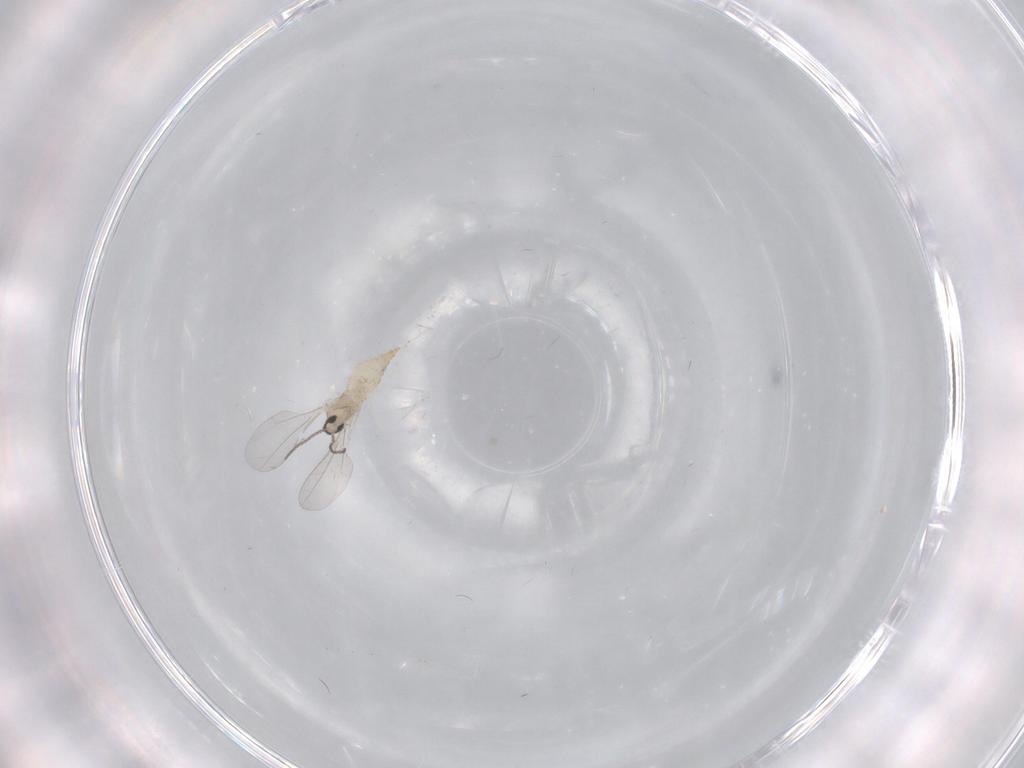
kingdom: Animalia
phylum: Arthropoda
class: Insecta
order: Diptera
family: Cecidomyiidae
